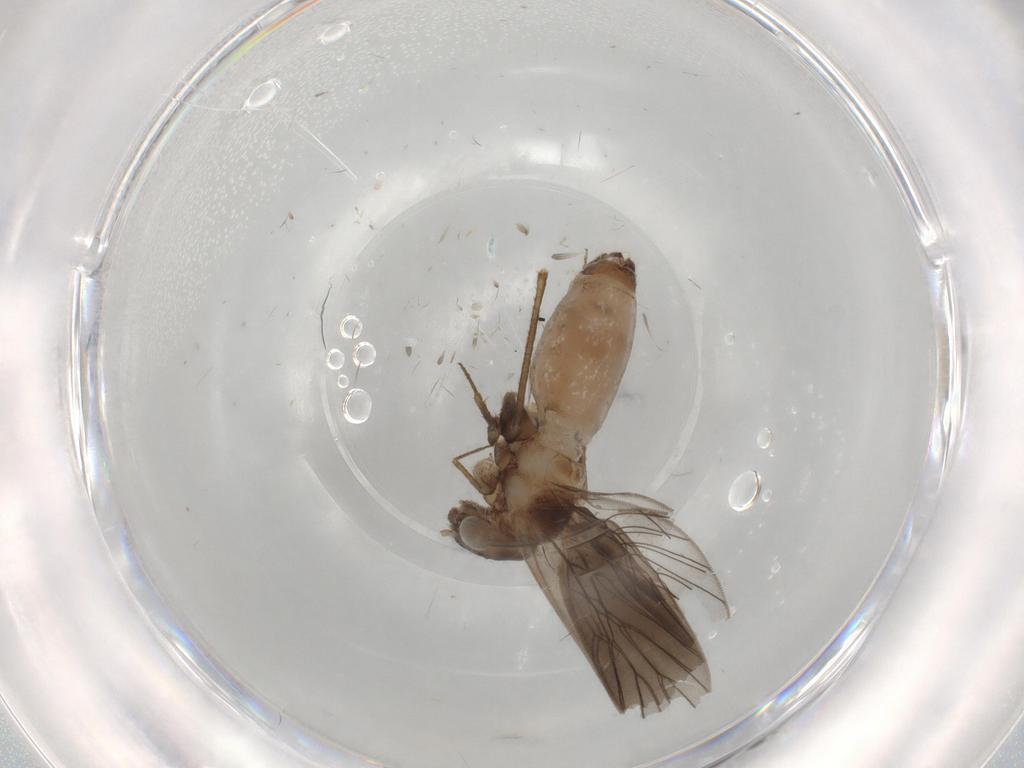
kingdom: Animalia
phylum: Arthropoda
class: Insecta
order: Psocodea
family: Lepidopsocidae
